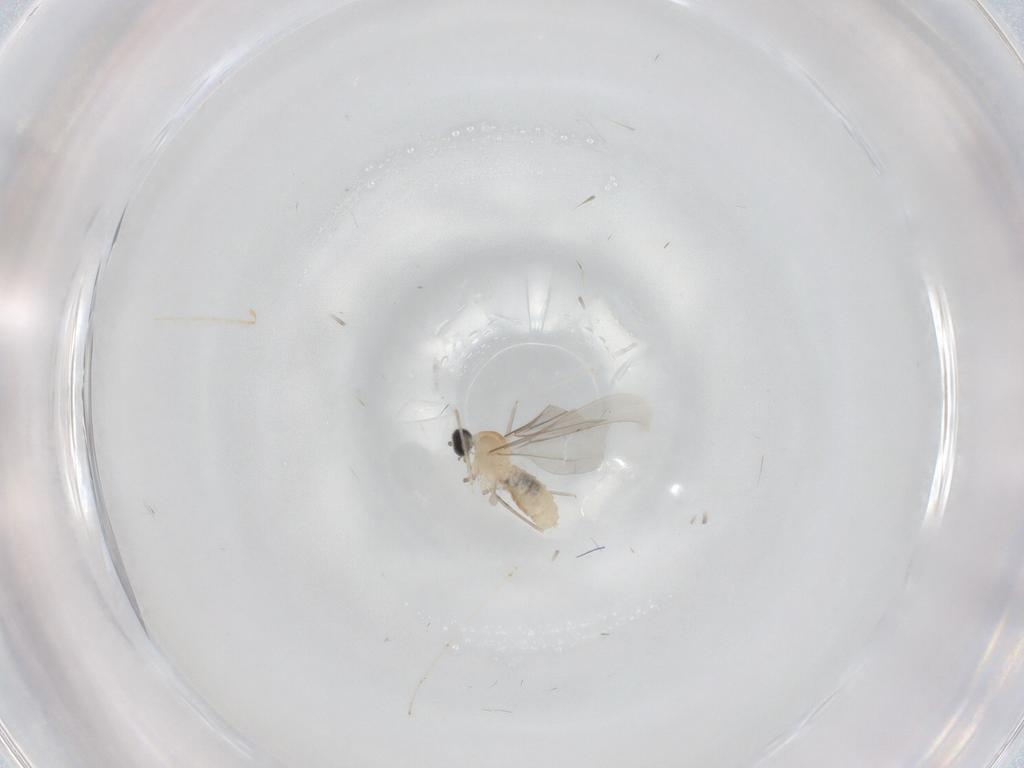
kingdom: Animalia
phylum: Arthropoda
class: Insecta
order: Diptera
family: Cecidomyiidae
